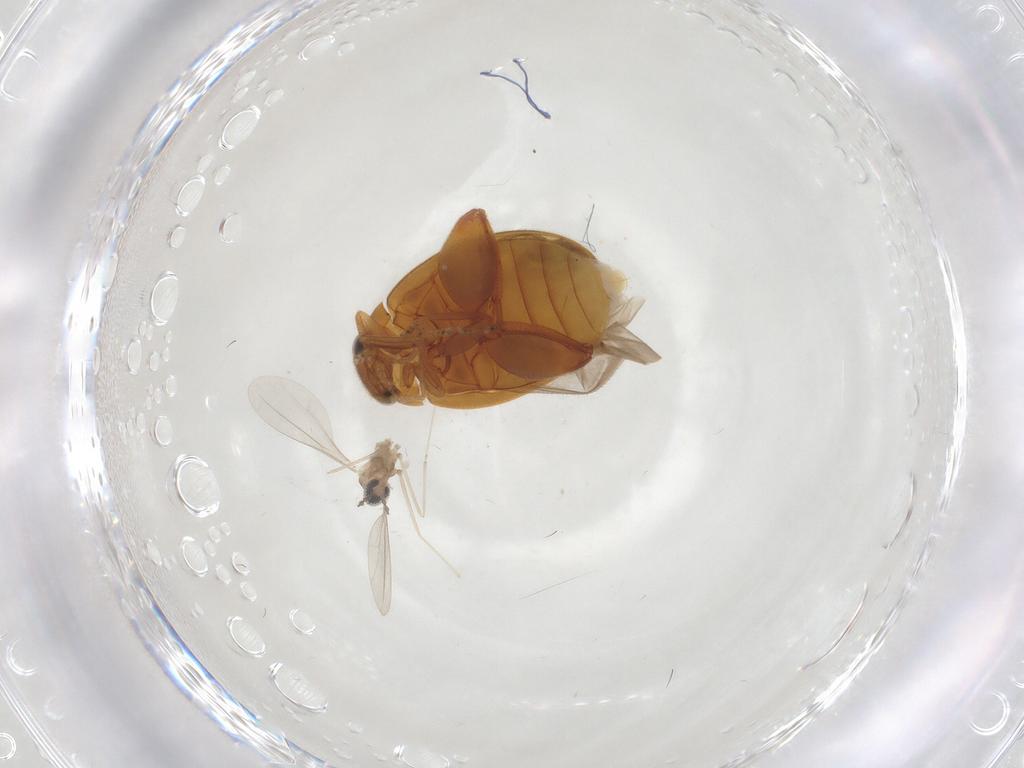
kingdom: Animalia
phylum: Arthropoda
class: Insecta
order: Diptera
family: Cecidomyiidae
